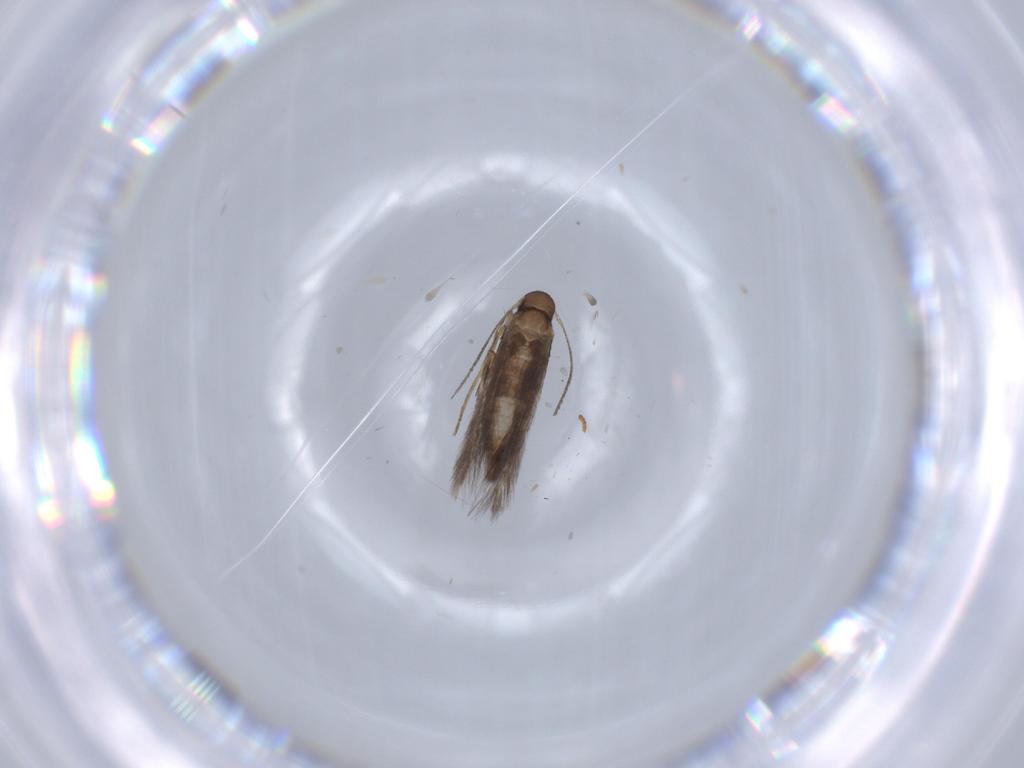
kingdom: Animalia
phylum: Arthropoda
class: Insecta
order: Lepidoptera
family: Pyralidae
